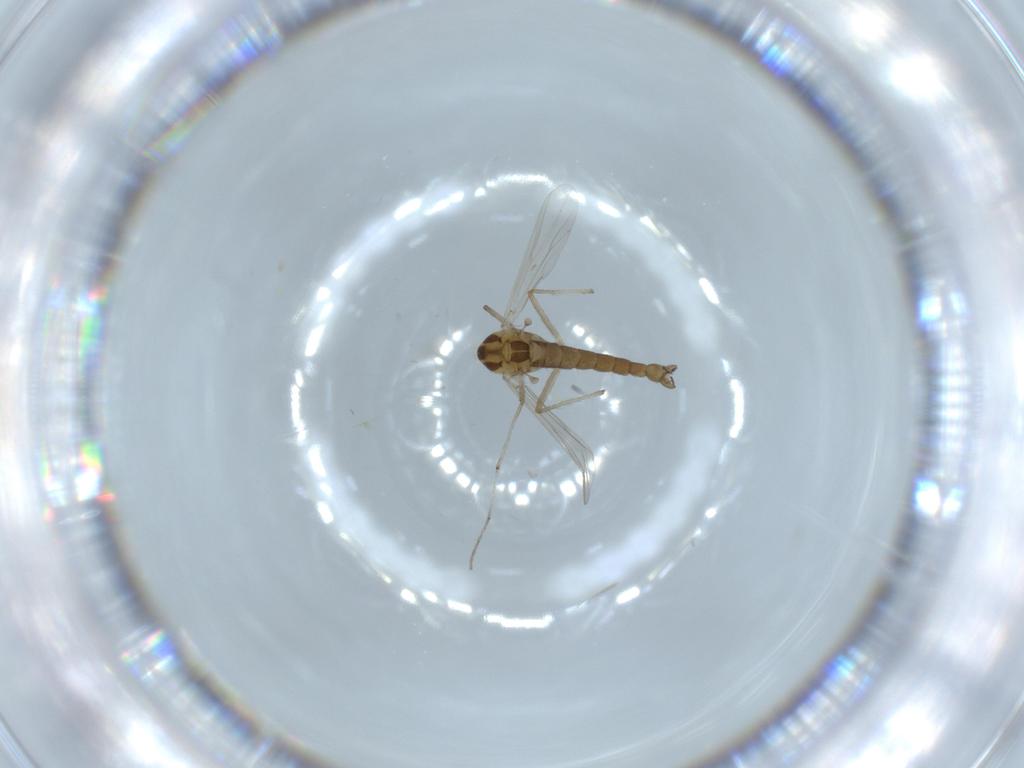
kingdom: Animalia
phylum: Arthropoda
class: Insecta
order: Diptera
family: Chironomidae
